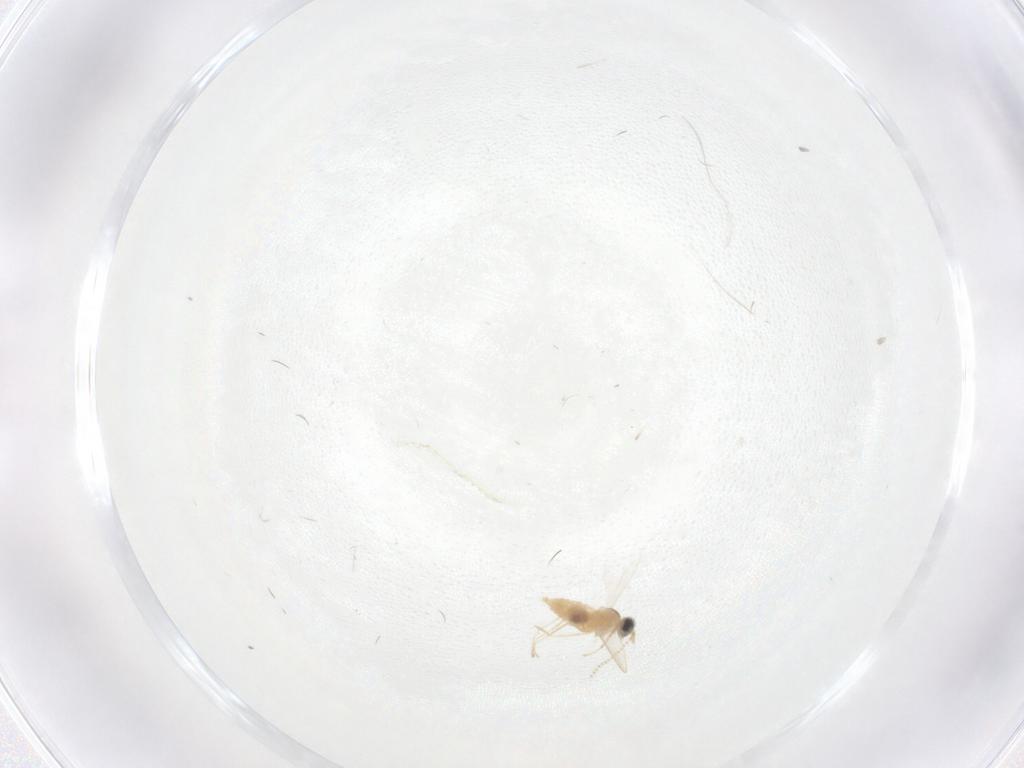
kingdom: Animalia
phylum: Arthropoda
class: Insecta
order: Diptera
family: Cecidomyiidae
